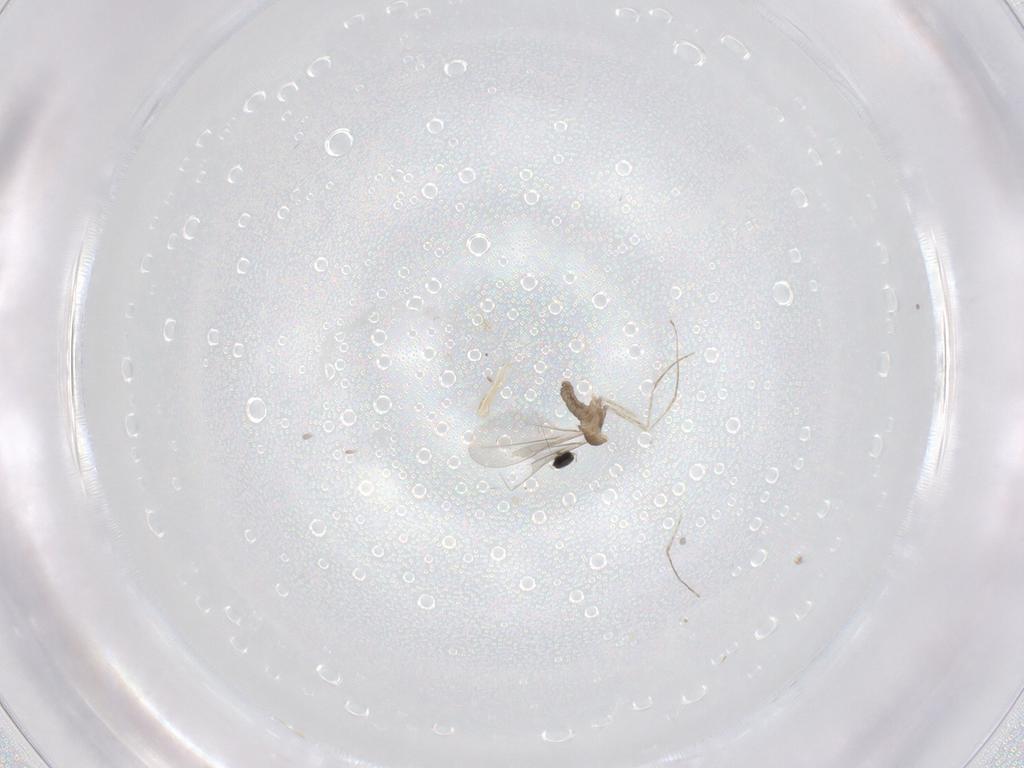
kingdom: Animalia
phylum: Arthropoda
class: Insecta
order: Diptera
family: Cecidomyiidae
